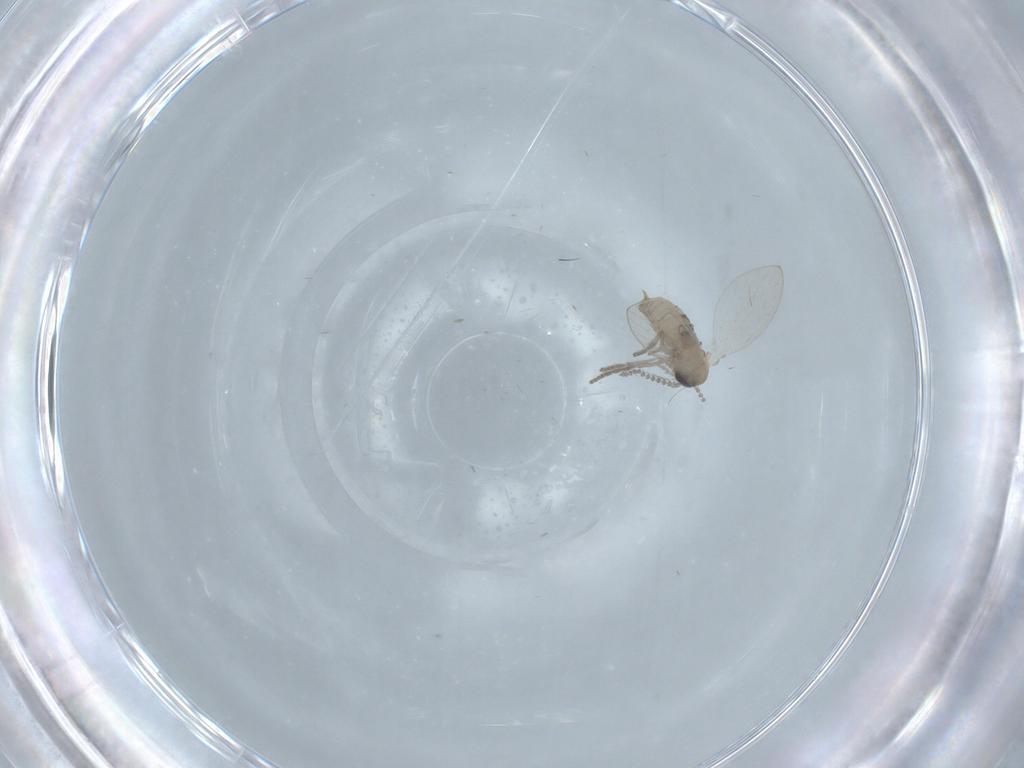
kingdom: Animalia
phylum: Arthropoda
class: Insecta
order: Diptera
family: Psychodidae
